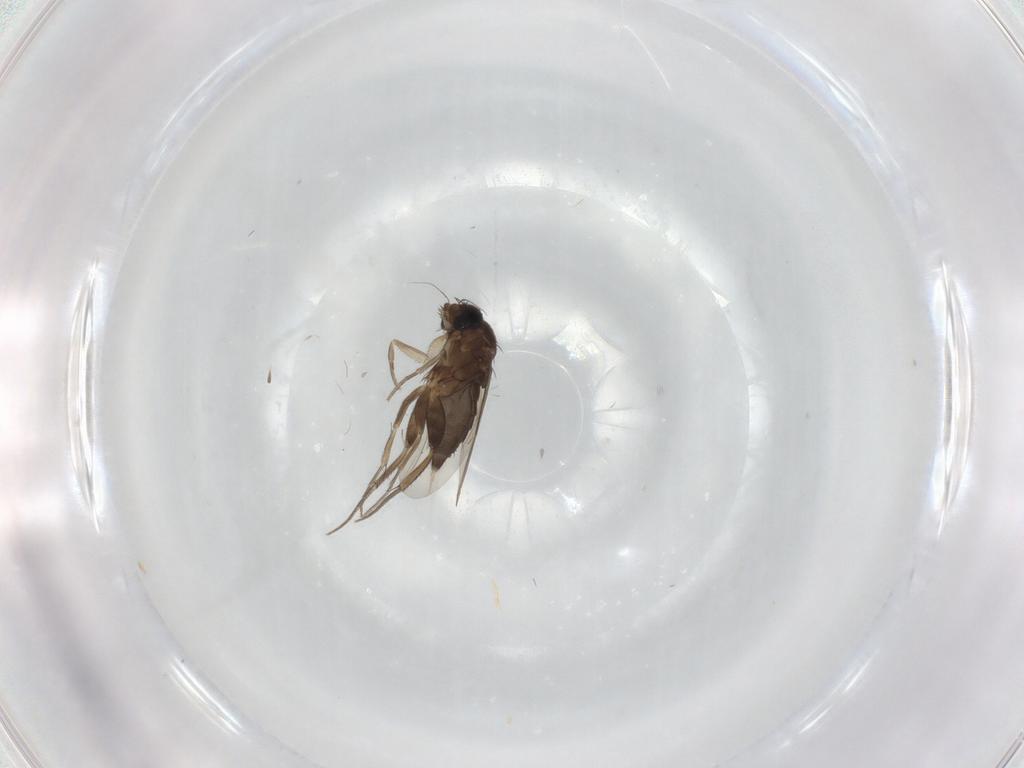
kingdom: Animalia
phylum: Arthropoda
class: Insecta
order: Diptera
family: Phoridae
